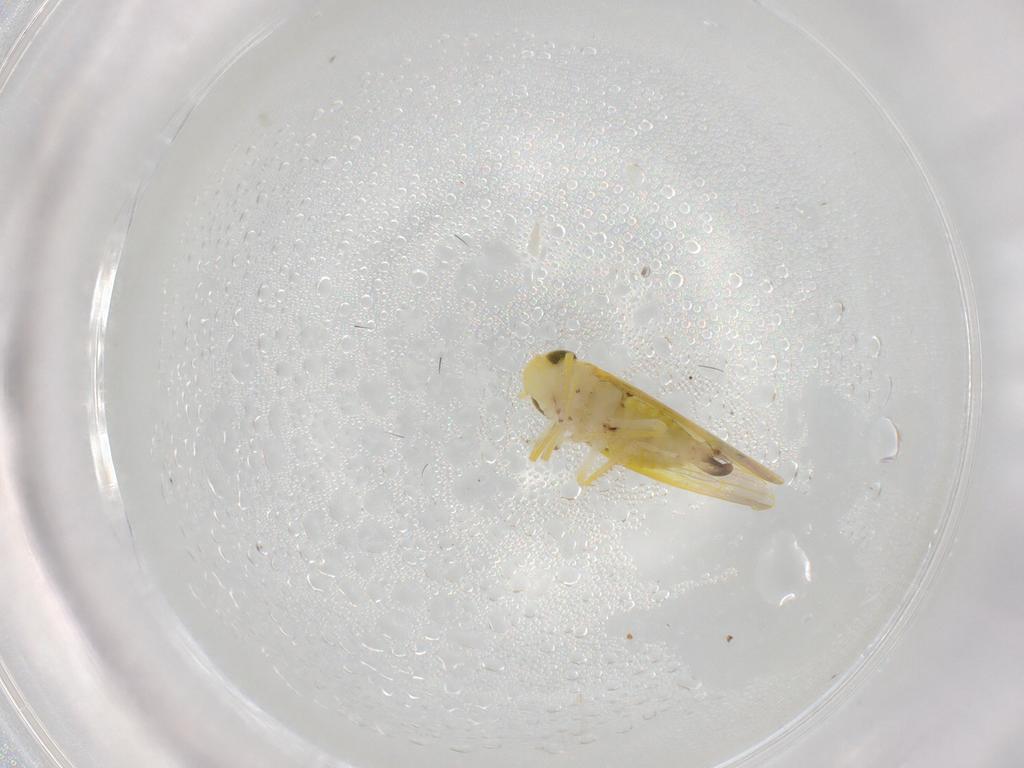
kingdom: Animalia
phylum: Arthropoda
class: Insecta
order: Hemiptera
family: Cicadellidae
